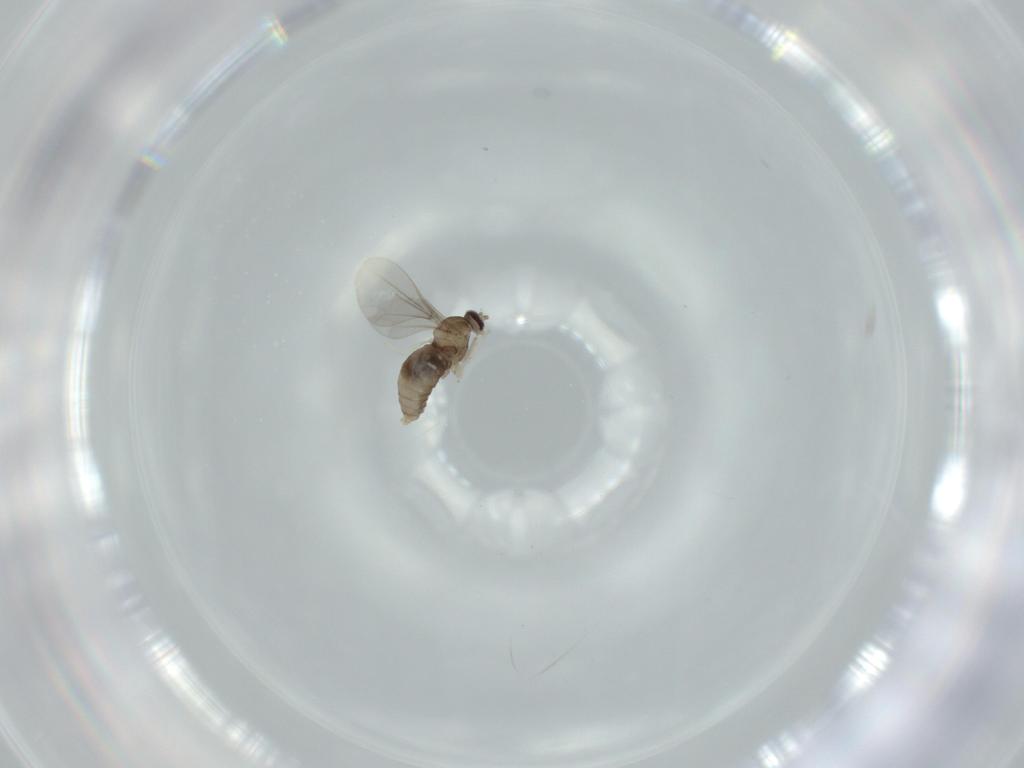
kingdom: Animalia
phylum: Arthropoda
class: Insecta
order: Diptera
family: Cecidomyiidae
